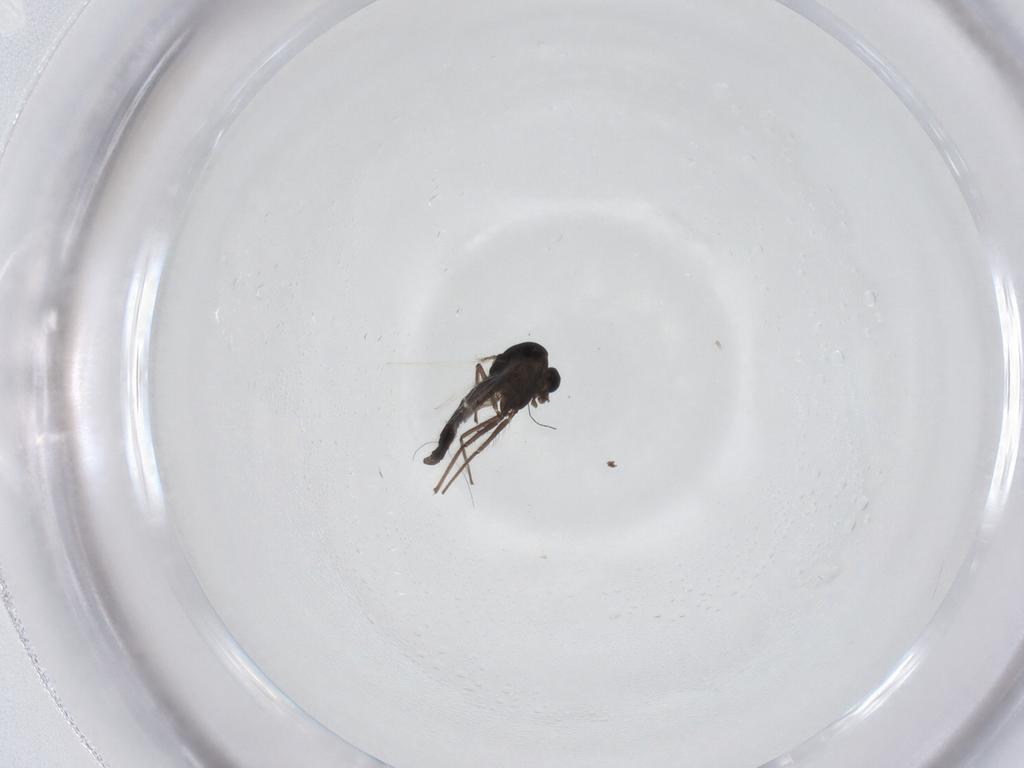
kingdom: Animalia
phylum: Arthropoda
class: Insecta
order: Diptera
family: Chironomidae
